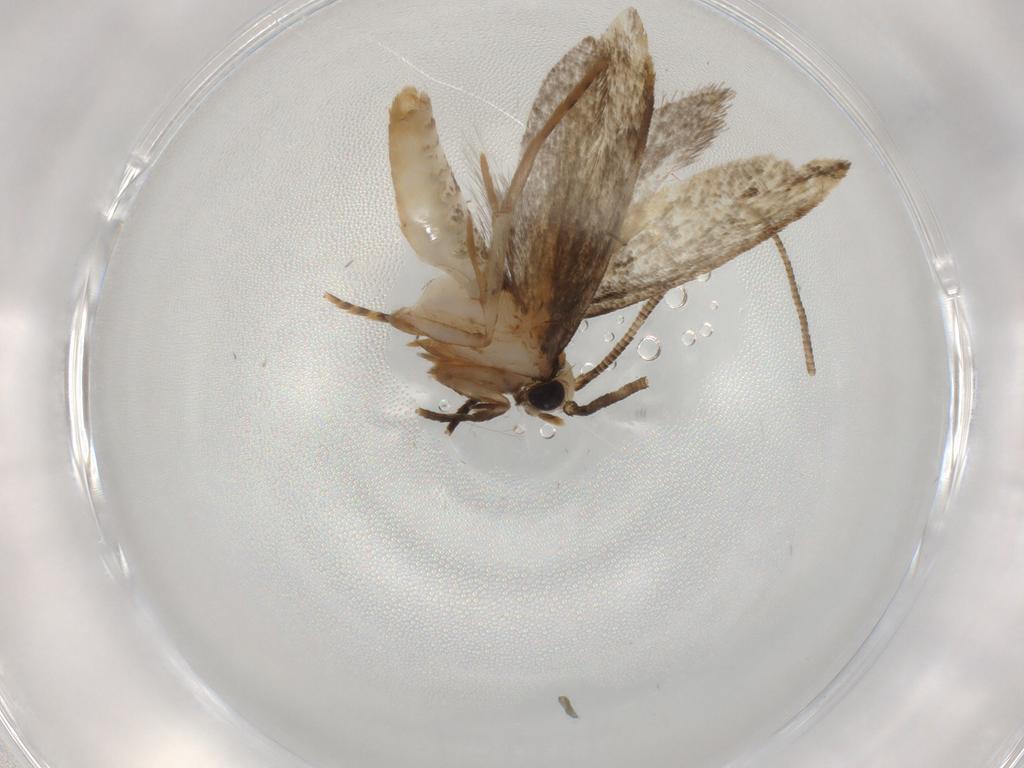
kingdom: Animalia
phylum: Arthropoda
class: Insecta
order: Lepidoptera
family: Tineidae
